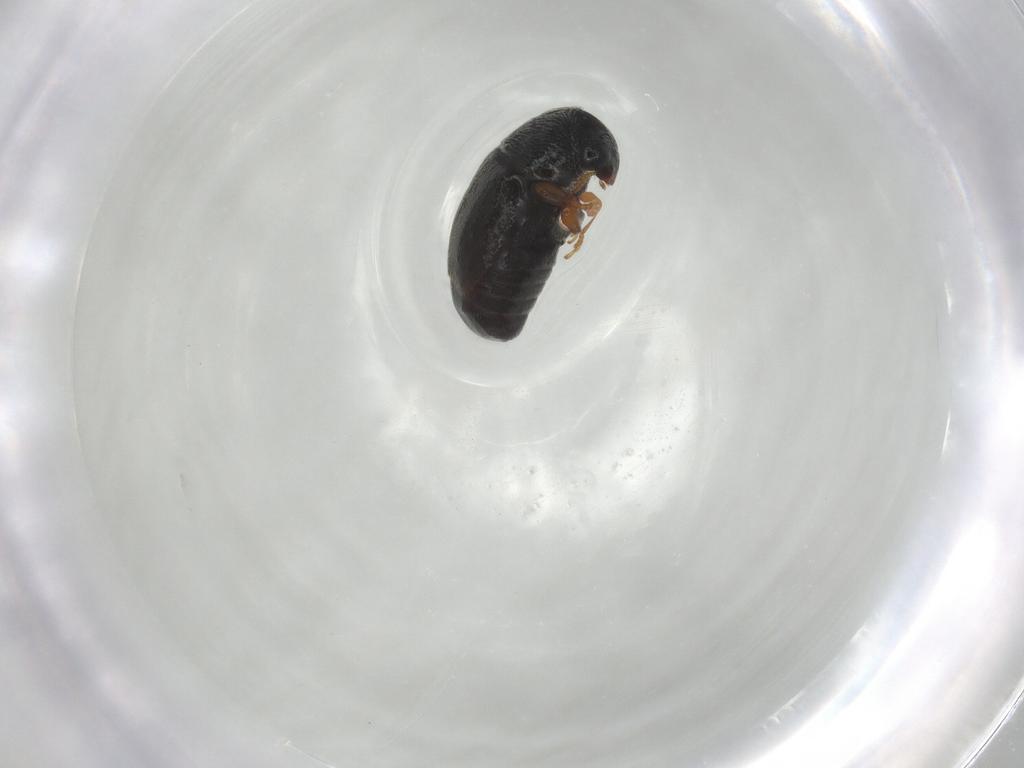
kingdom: Animalia
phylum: Arthropoda
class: Insecta
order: Coleoptera
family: Anthribidae
